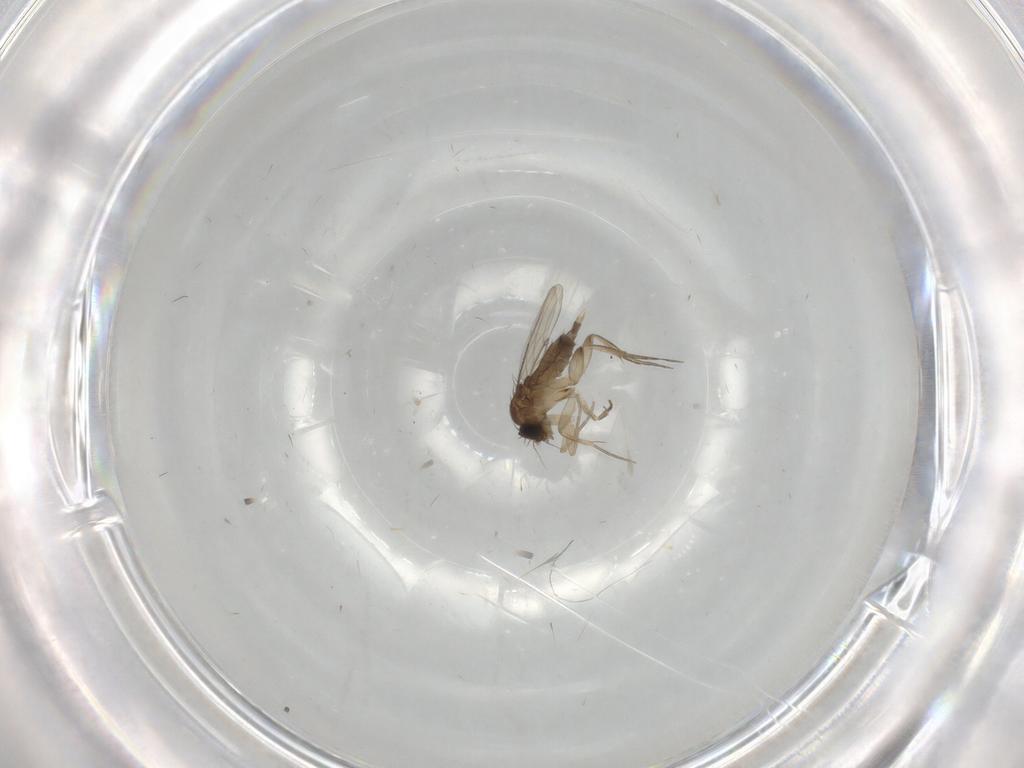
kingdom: Animalia
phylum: Arthropoda
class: Insecta
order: Diptera
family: Phoridae
